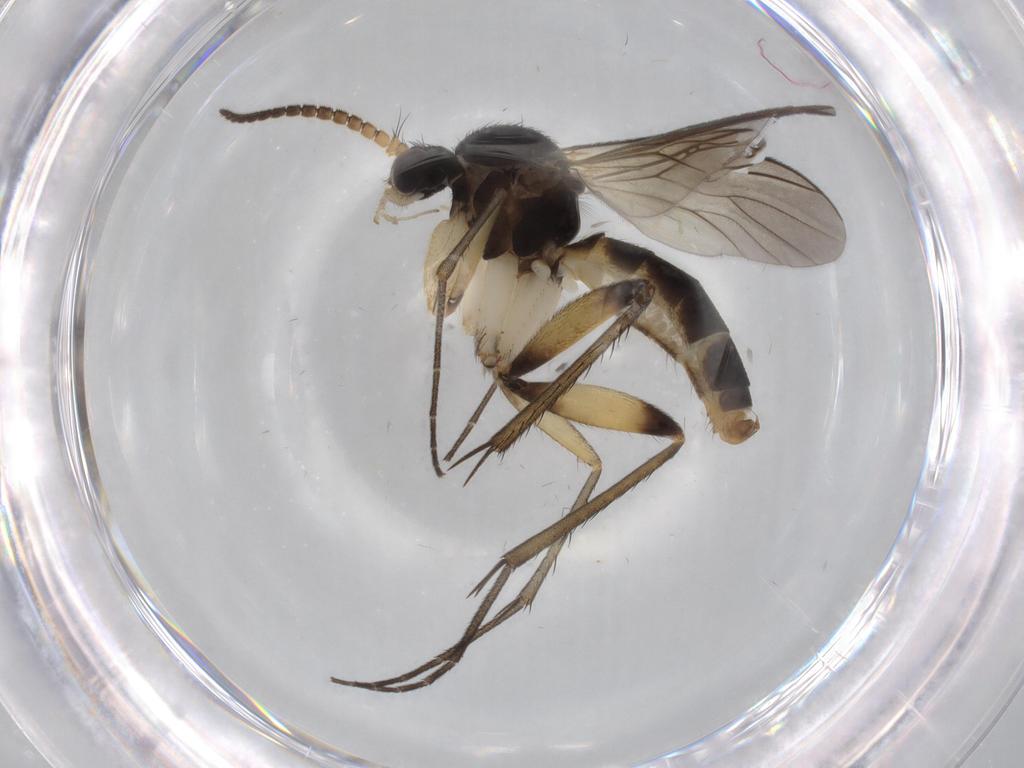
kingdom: Animalia
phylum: Arthropoda
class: Insecta
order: Diptera
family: Cecidomyiidae
